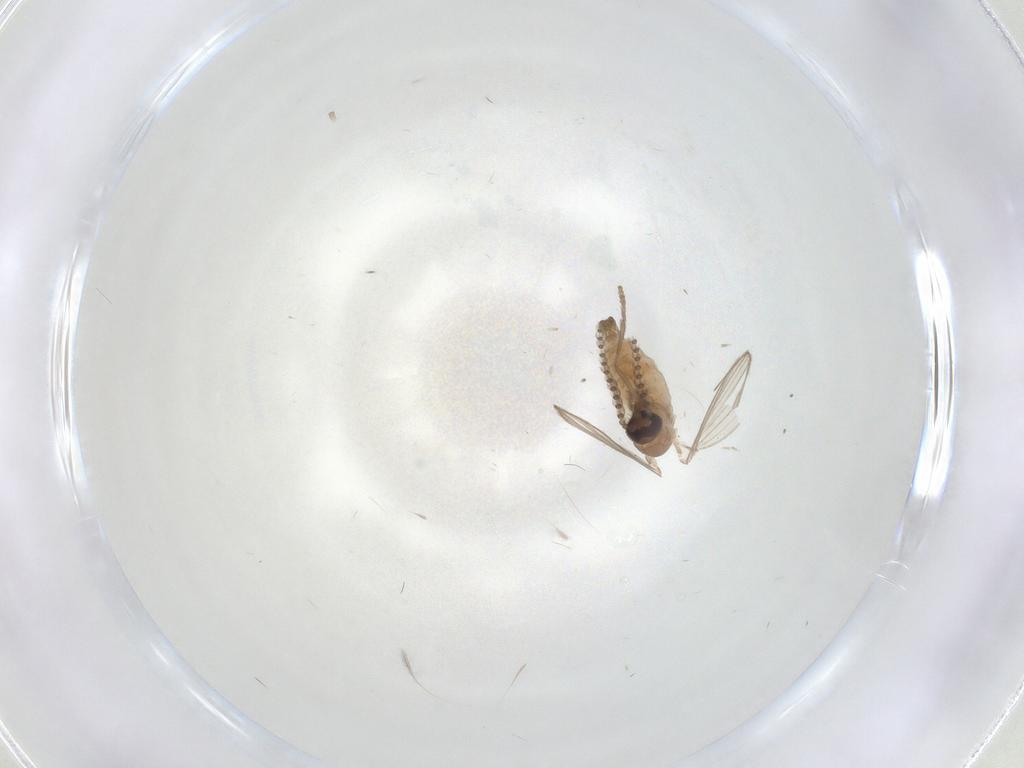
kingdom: Animalia
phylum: Arthropoda
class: Insecta
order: Diptera
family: Psychodidae
